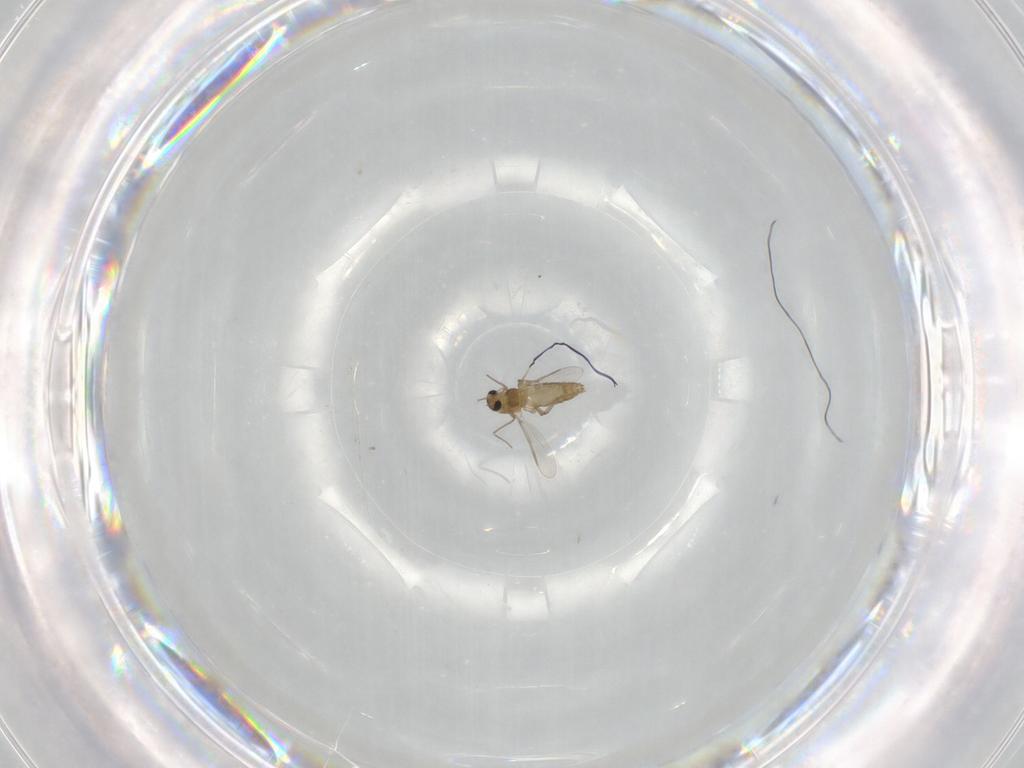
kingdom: Animalia
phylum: Arthropoda
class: Insecta
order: Diptera
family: Chironomidae
